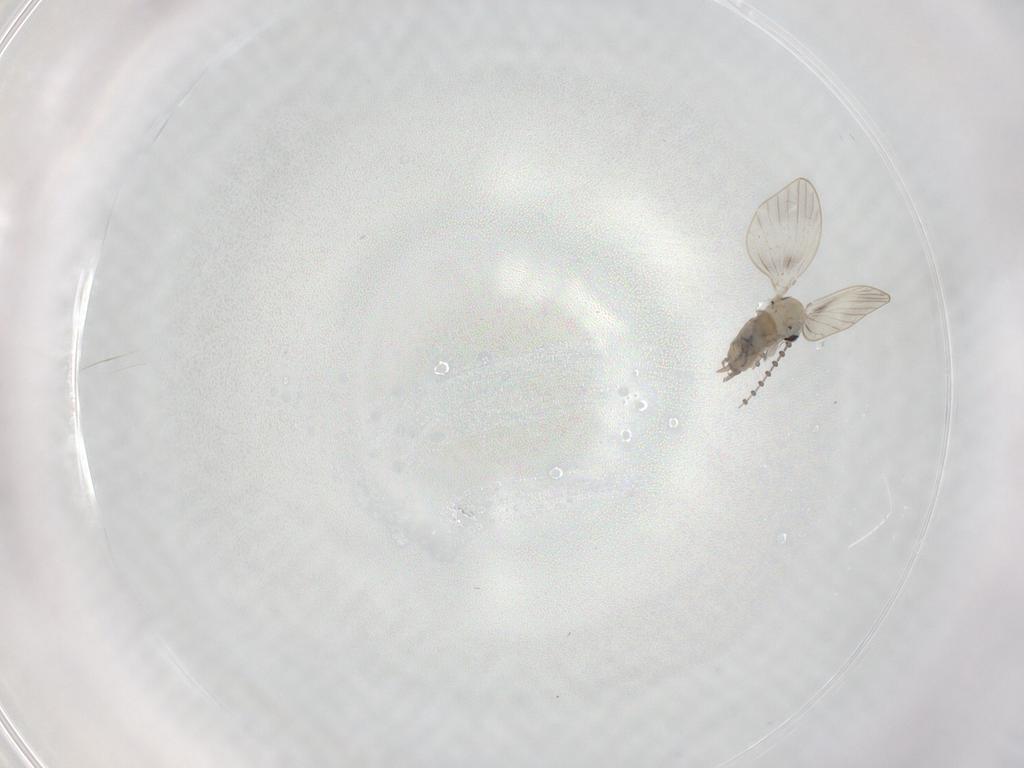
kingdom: Animalia
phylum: Arthropoda
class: Insecta
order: Diptera
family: Psychodidae
